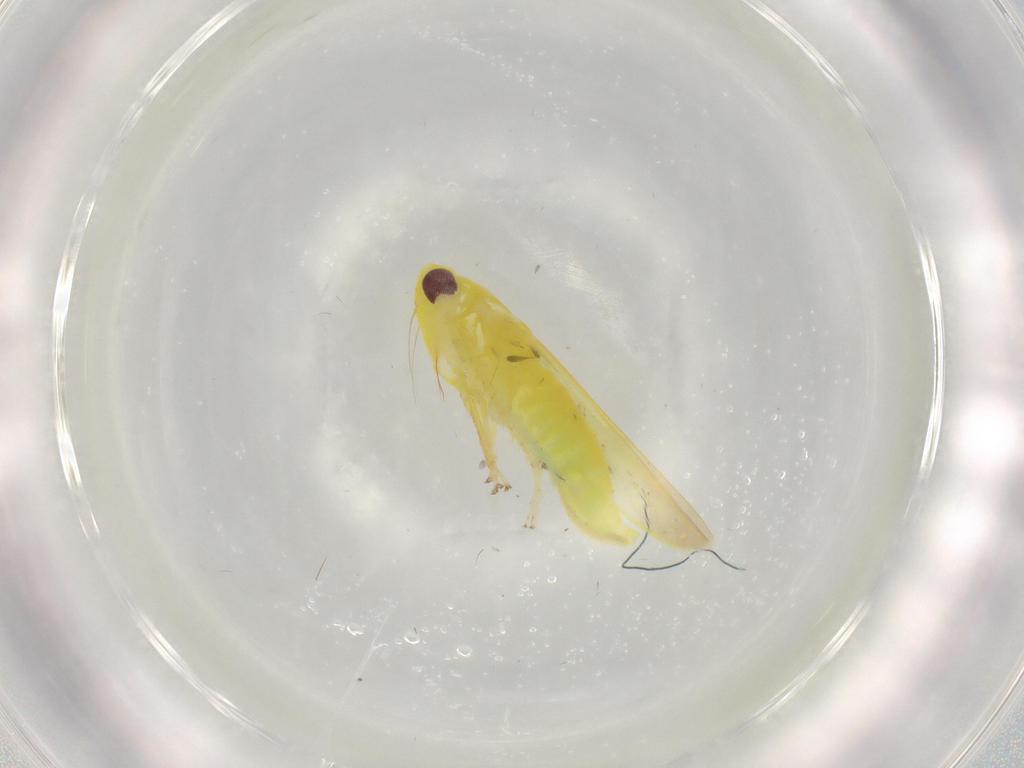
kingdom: Animalia
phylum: Arthropoda
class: Insecta
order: Hemiptera
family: Cicadellidae
